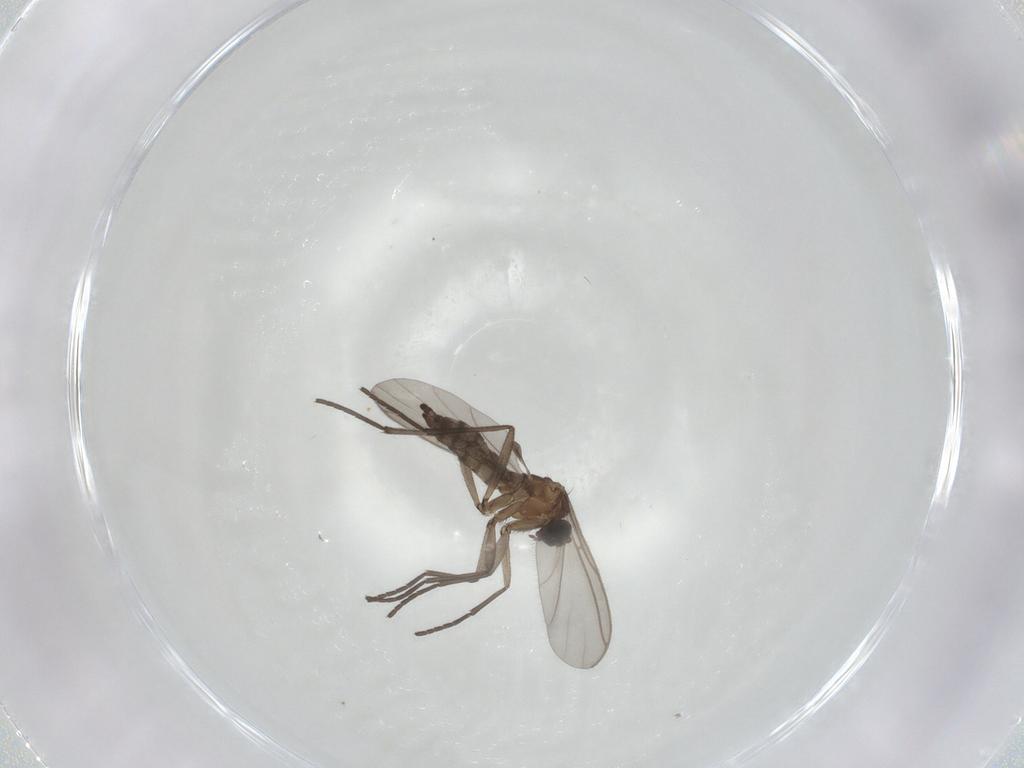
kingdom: Animalia
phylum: Arthropoda
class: Insecta
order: Diptera
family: Sciaridae
